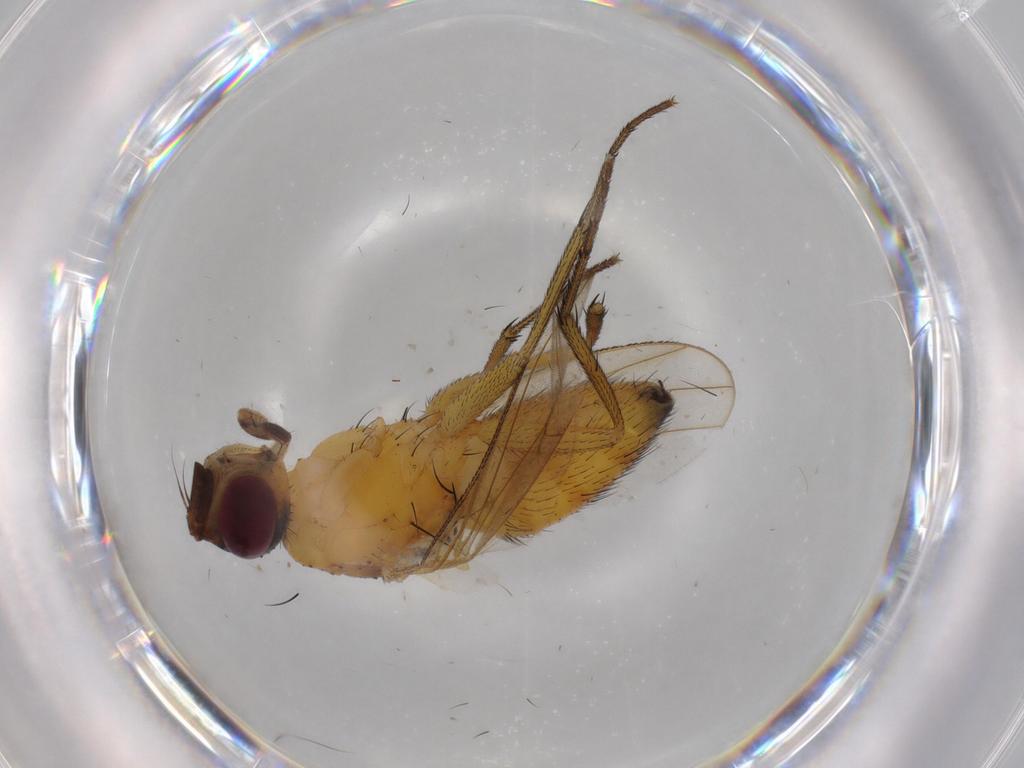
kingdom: Animalia
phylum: Arthropoda
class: Insecta
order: Diptera
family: Muscidae
